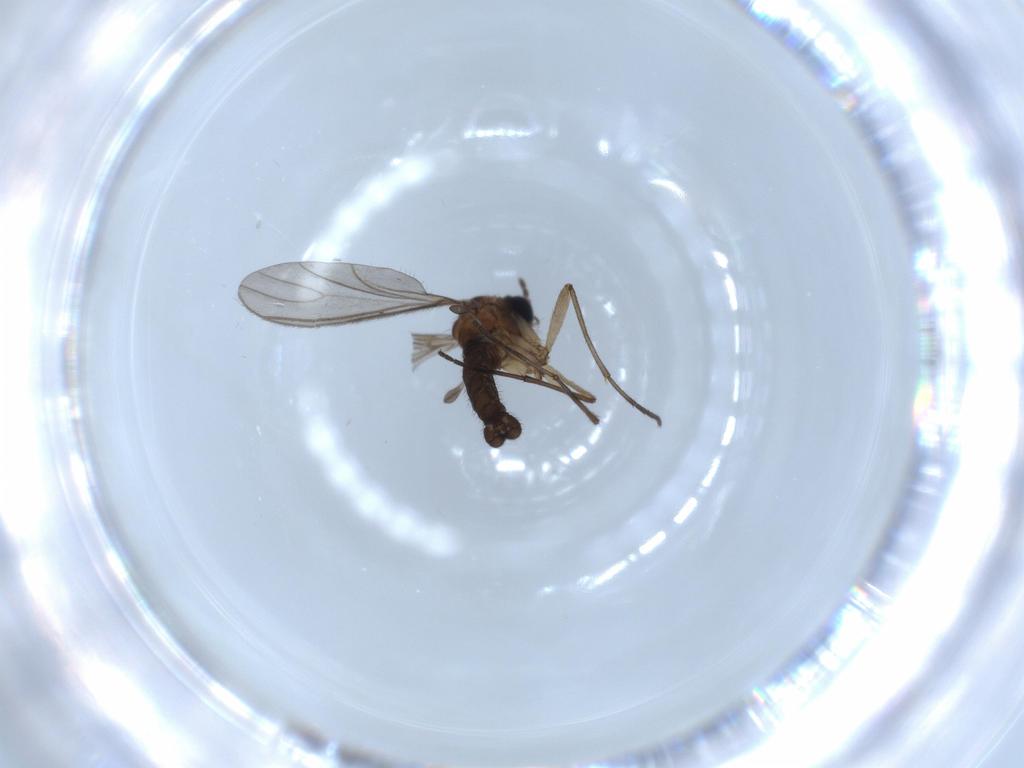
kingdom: Animalia
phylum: Arthropoda
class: Insecta
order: Diptera
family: Sciaridae
